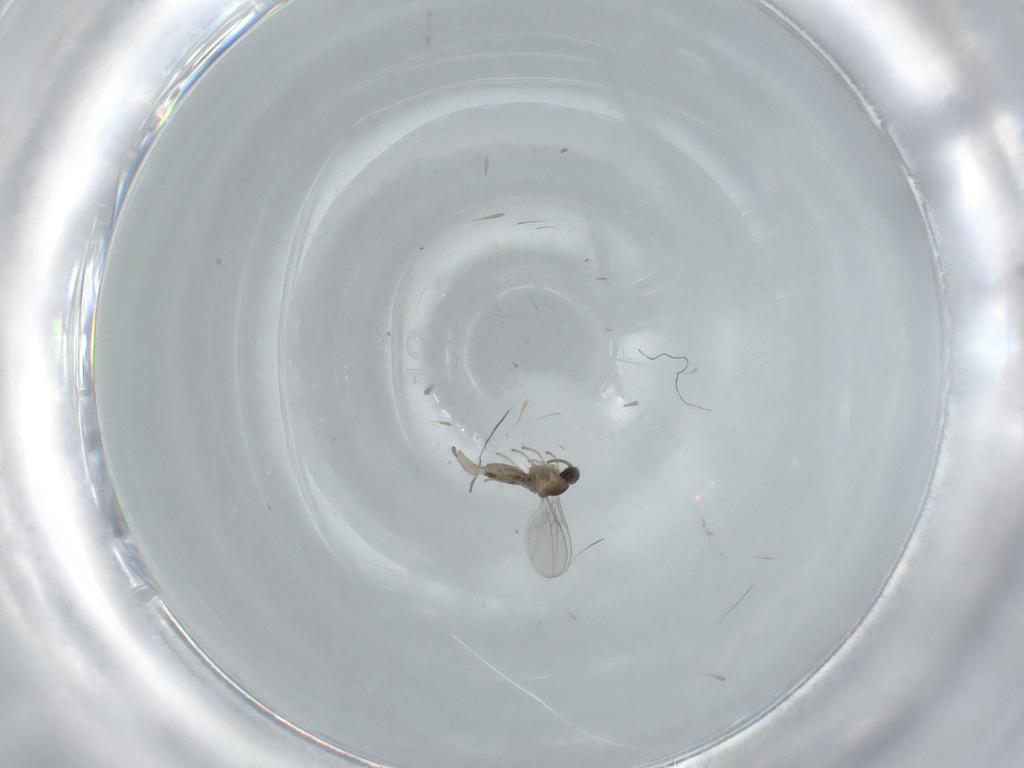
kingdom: Animalia
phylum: Arthropoda
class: Insecta
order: Diptera
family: Cecidomyiidae
